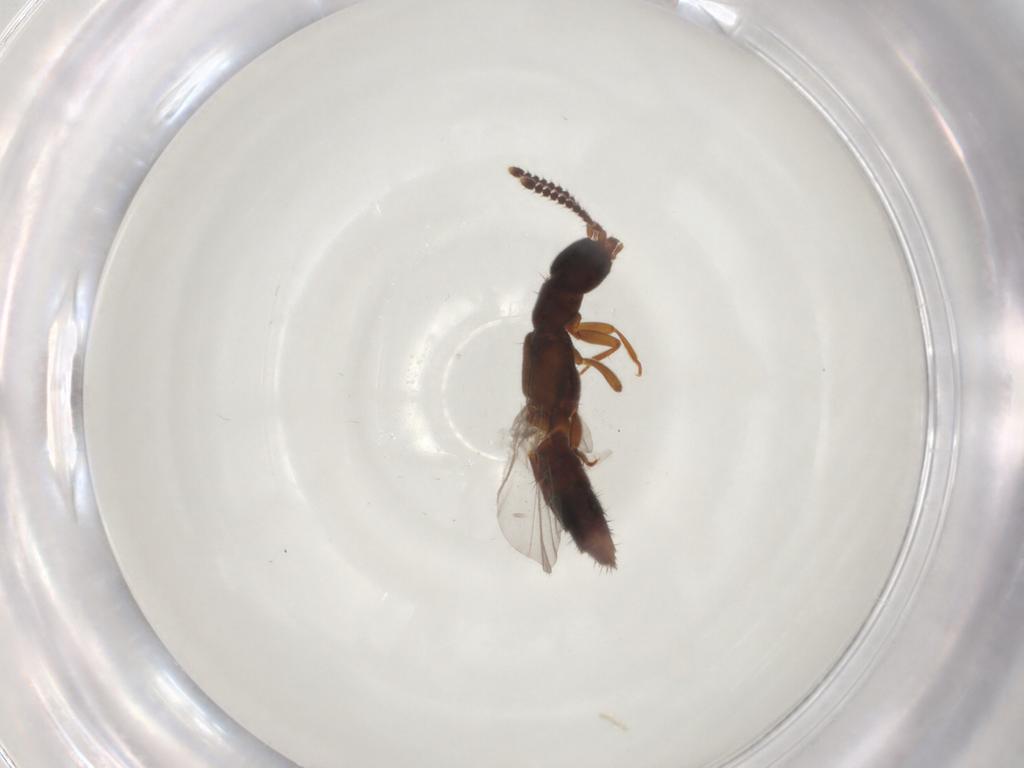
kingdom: Animalia
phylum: Arthropoda
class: Insecta
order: Coleoptera
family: Staphylinidae
